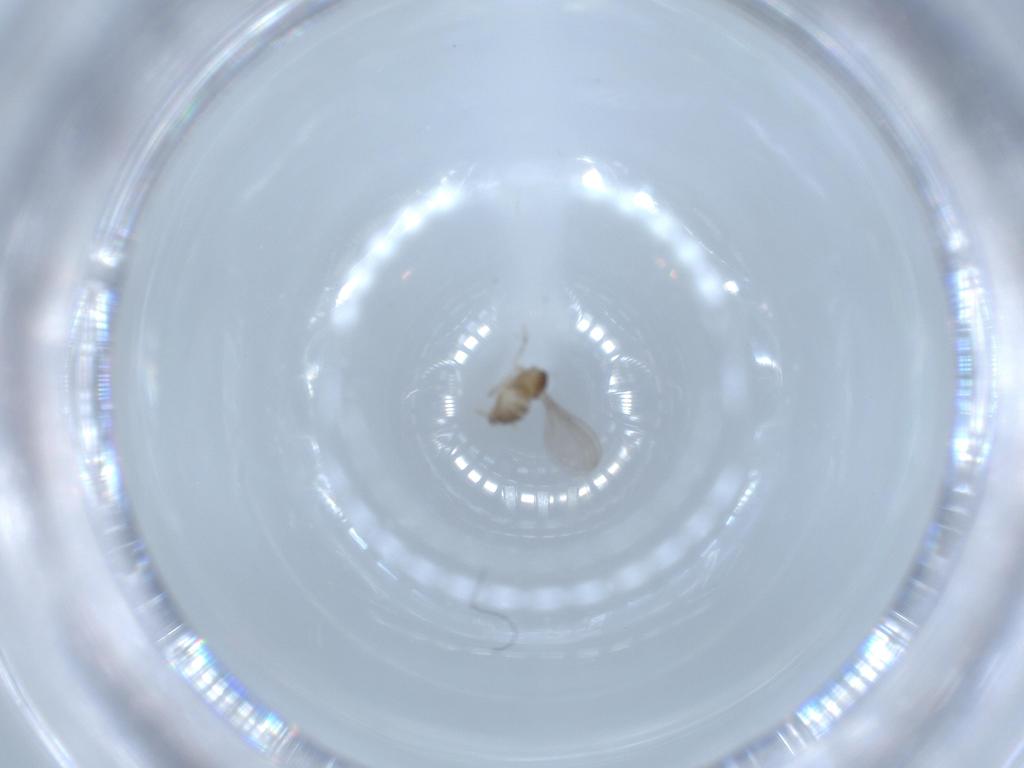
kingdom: Animalia
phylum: Arthropoda
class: Insecta
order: Diptera
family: Cecidomyiidae
